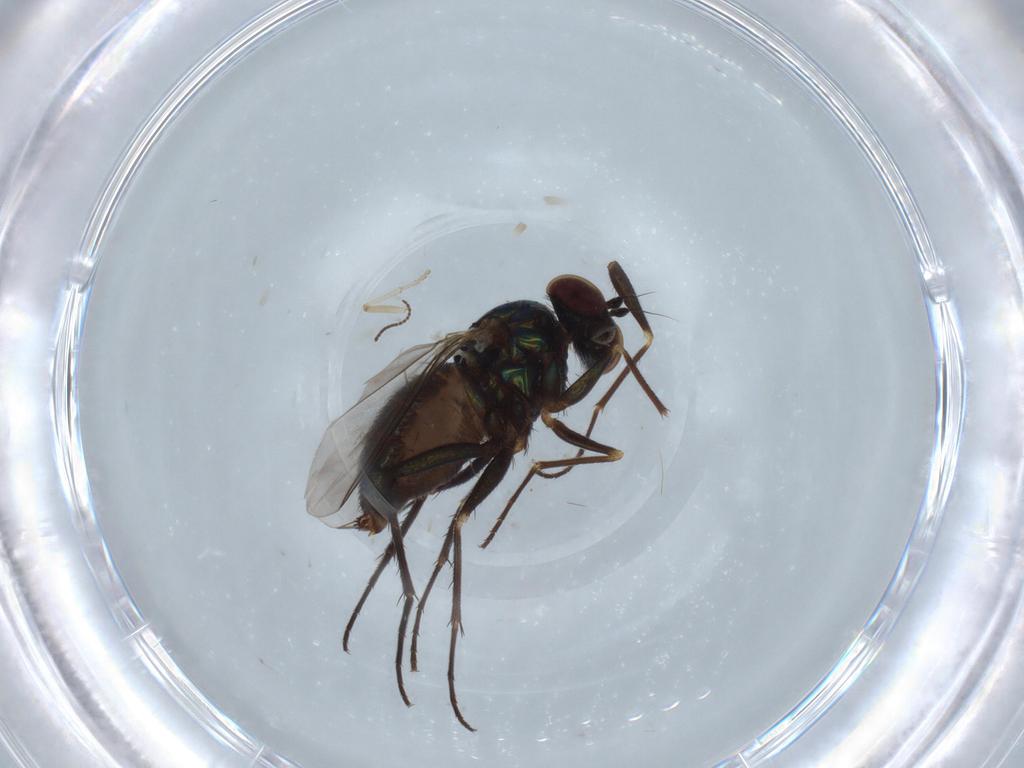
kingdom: Animalia
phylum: Arthropoda
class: Insecta
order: Diptera
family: Dolichopodidae
